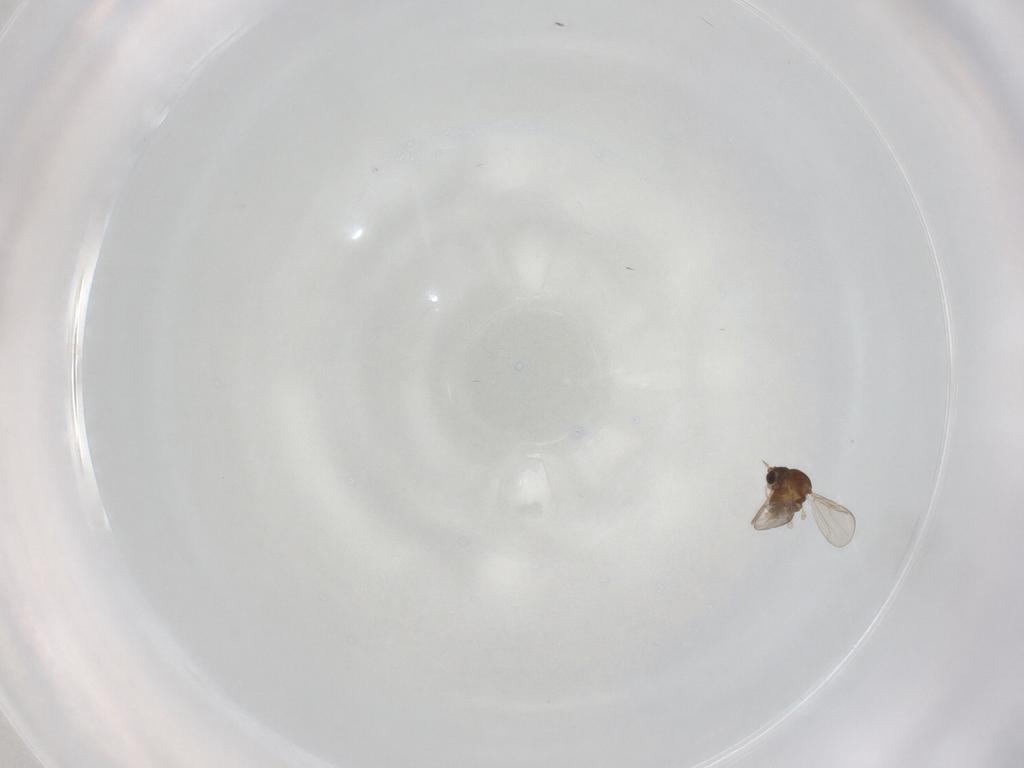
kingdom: Animalia
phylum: Arthropoda
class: Insecta
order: Diptera
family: Chironomidae
